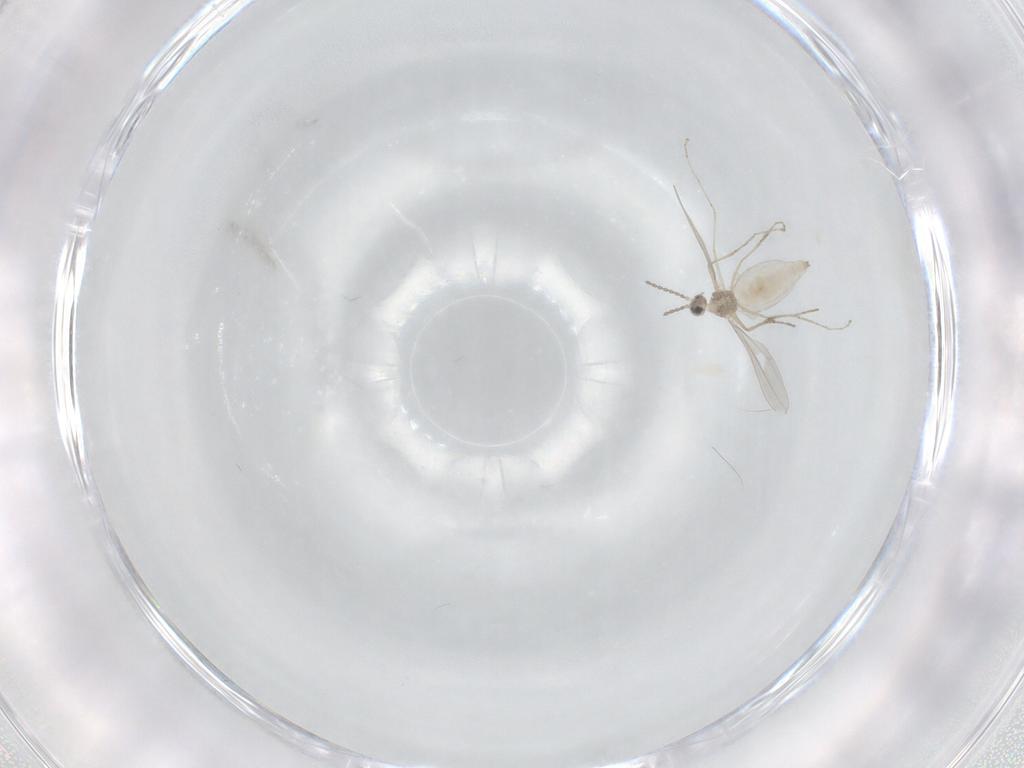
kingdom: Animalia
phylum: Arthropoda
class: Insecta
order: Diptera
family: Cecidomyiidae
